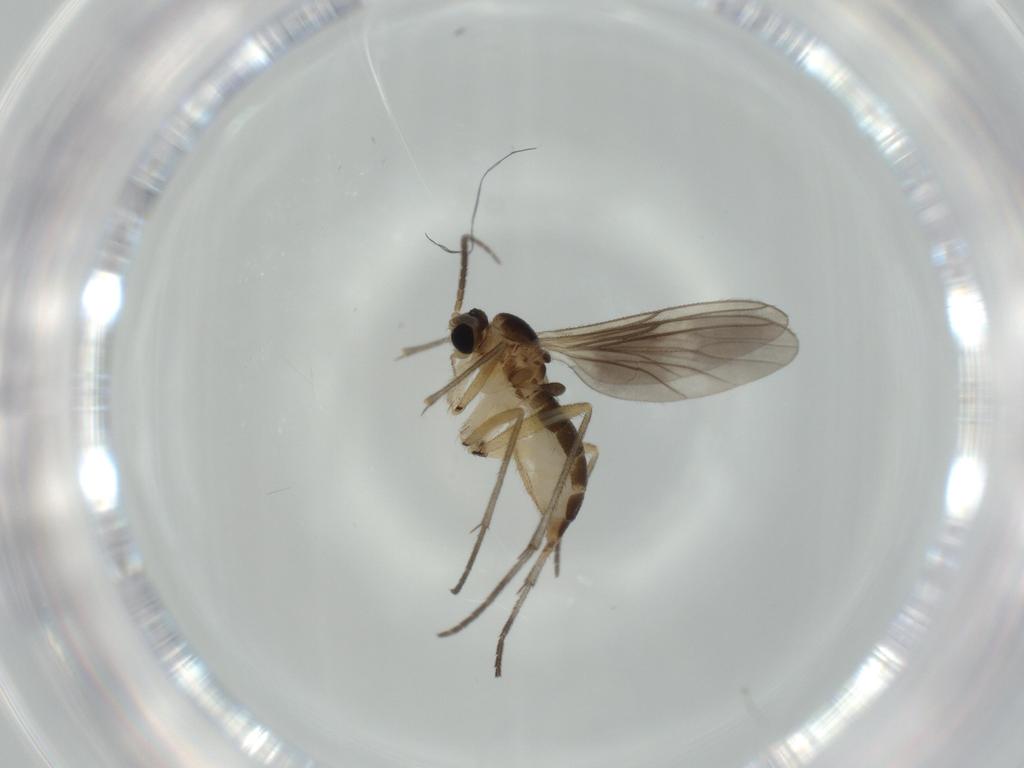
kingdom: Animalia
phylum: Arthropoda
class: Insecta
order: Diptera
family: Sciaridae
